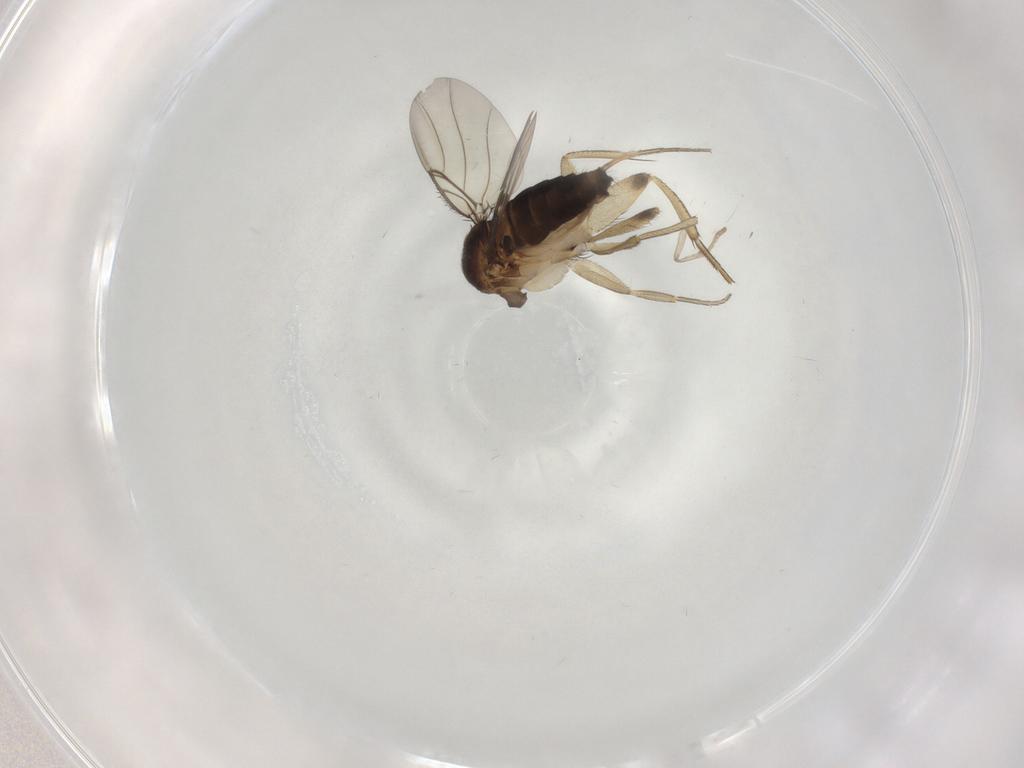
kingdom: Animalia
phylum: Arthropoda
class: Insecta
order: Diptera
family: Phoridae
